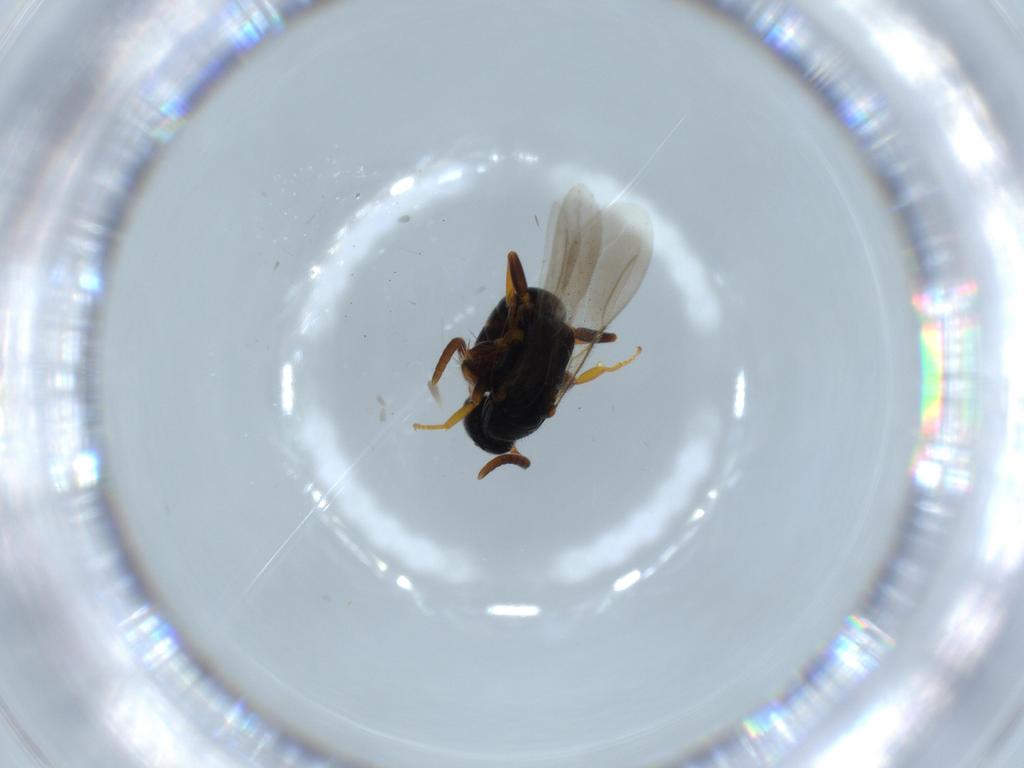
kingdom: Animalia
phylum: Arthropoda
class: Insecta
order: Hymenoptera
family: Bethylidae
